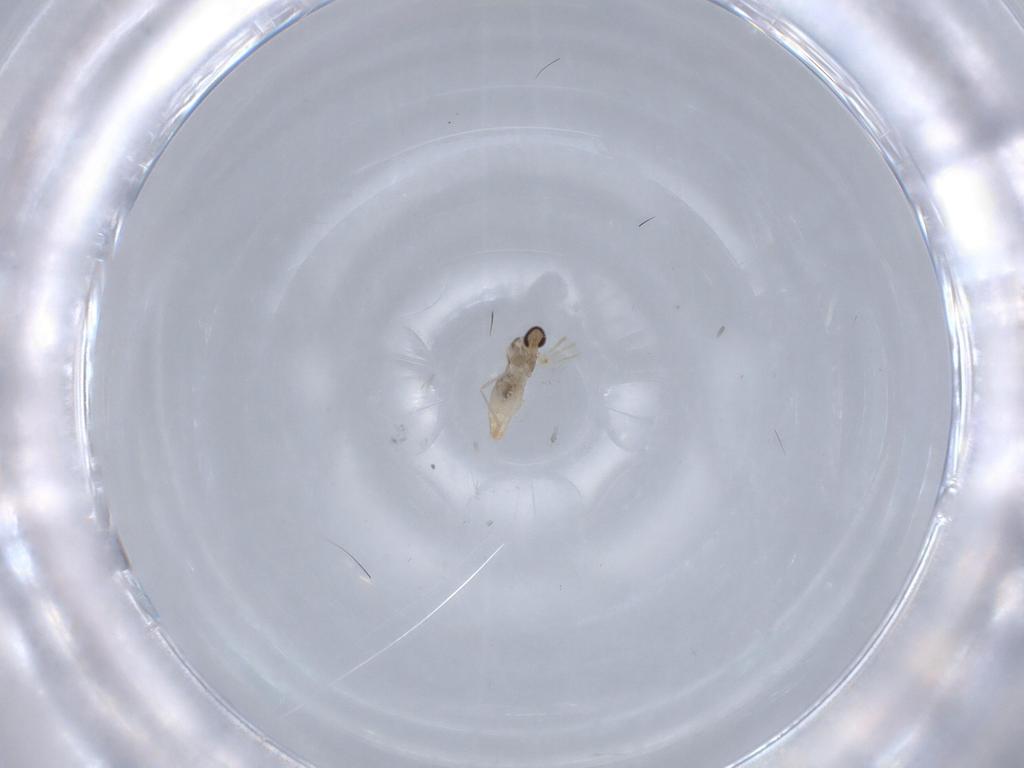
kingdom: Animalia
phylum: Arthropoda
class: Insecta
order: Diptera
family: Cecidomyiidae
